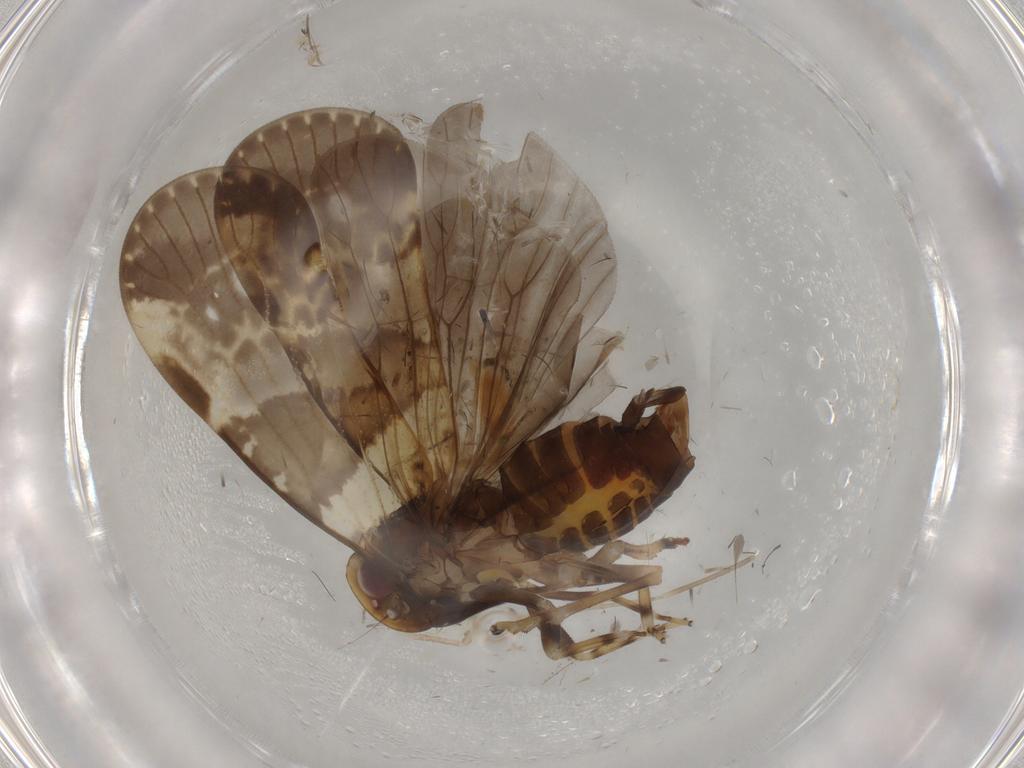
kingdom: Animalia
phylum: Arthropoda
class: Insecta
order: Hemiptera
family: Cixiidae
